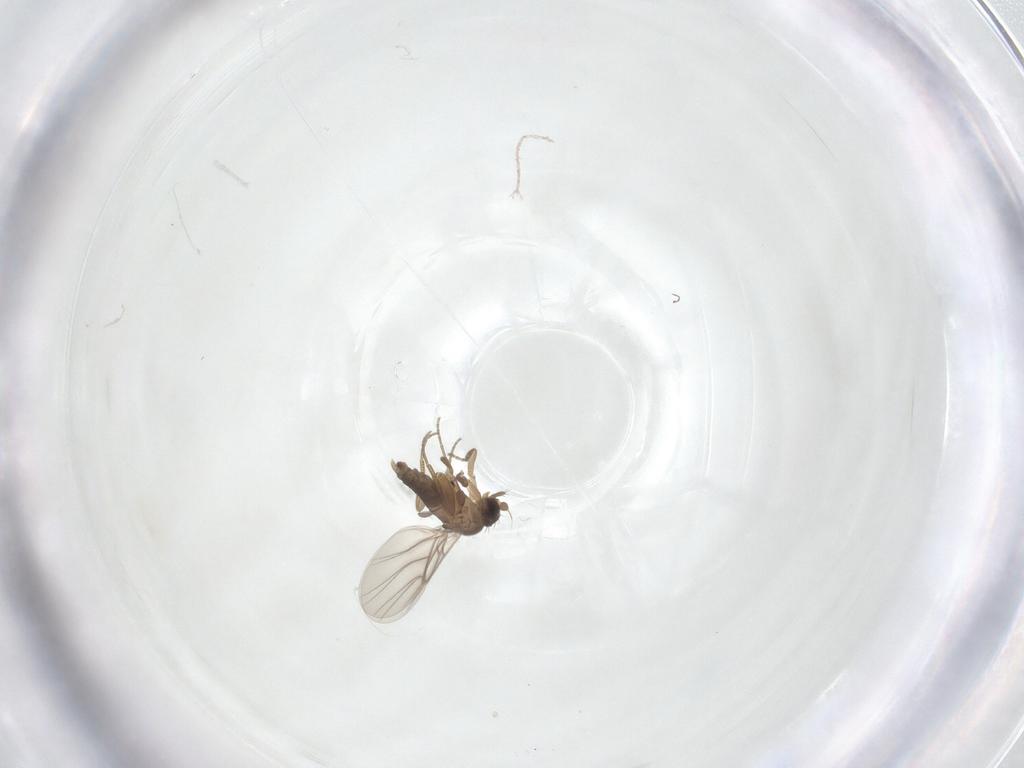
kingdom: Animalia
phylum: Arthropoda
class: Insecta
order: Diptera
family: Phoridae
